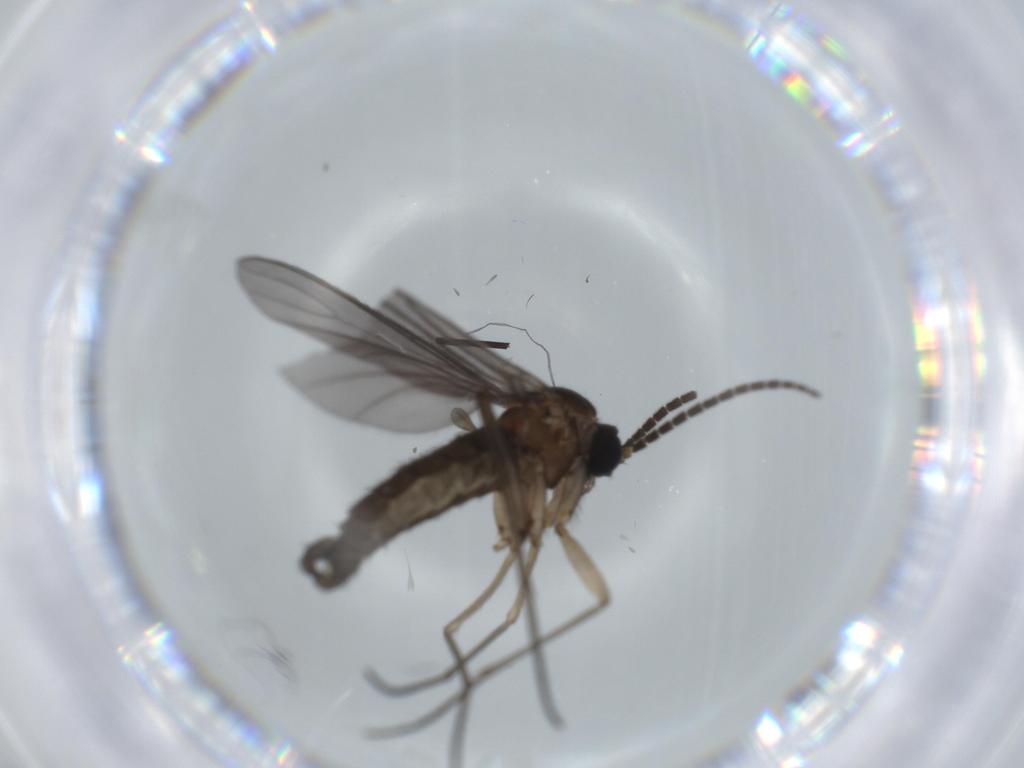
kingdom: Animalia
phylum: Arthropoda
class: Insecta
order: Diptera
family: Sciaridae
